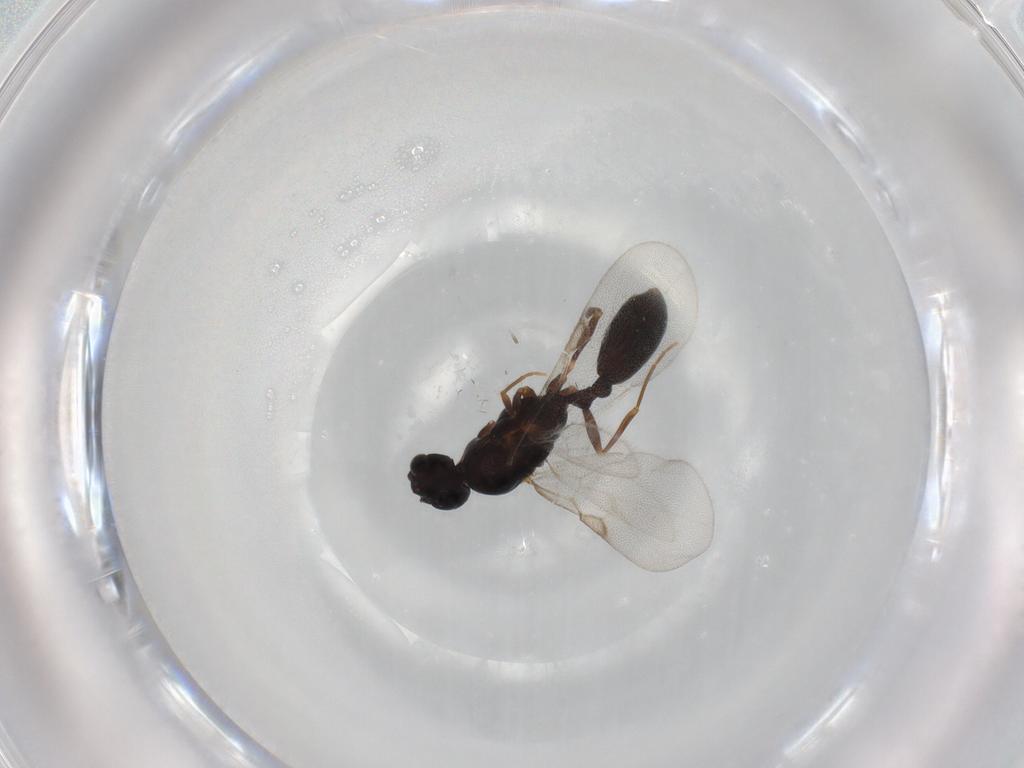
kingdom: Animalia
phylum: Arthropoda
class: Insecta
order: Hymenoptera
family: Formicidae
